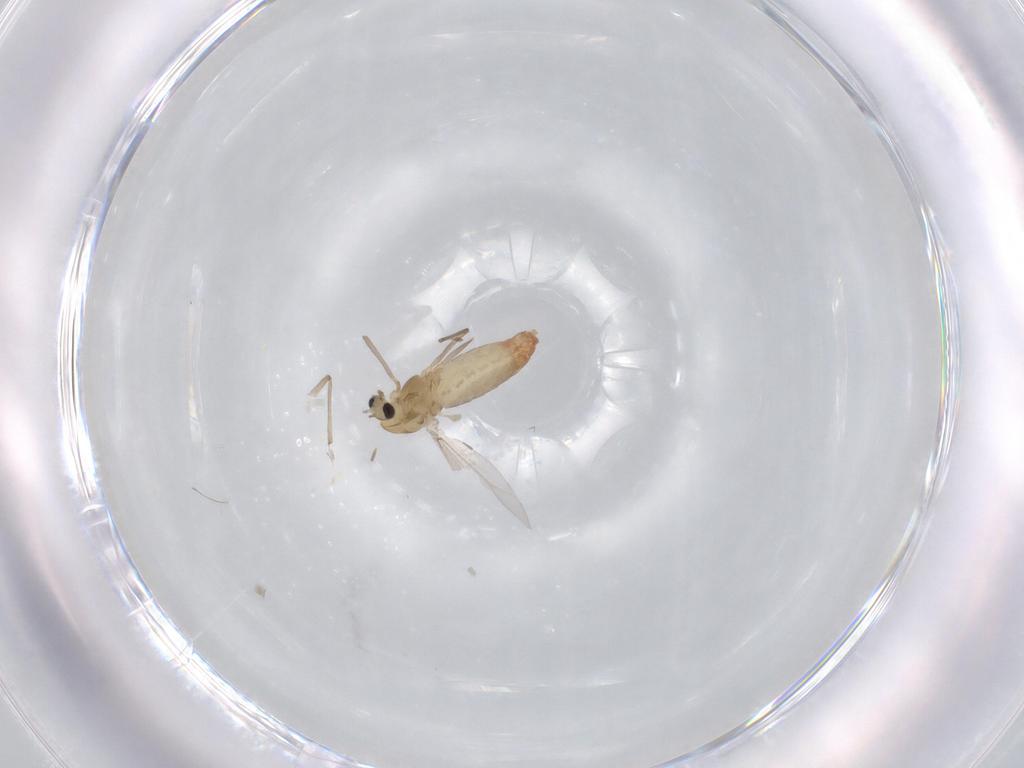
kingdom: Animalia
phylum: Arthropoda
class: Insecta
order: Diptera
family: Chironomidae
